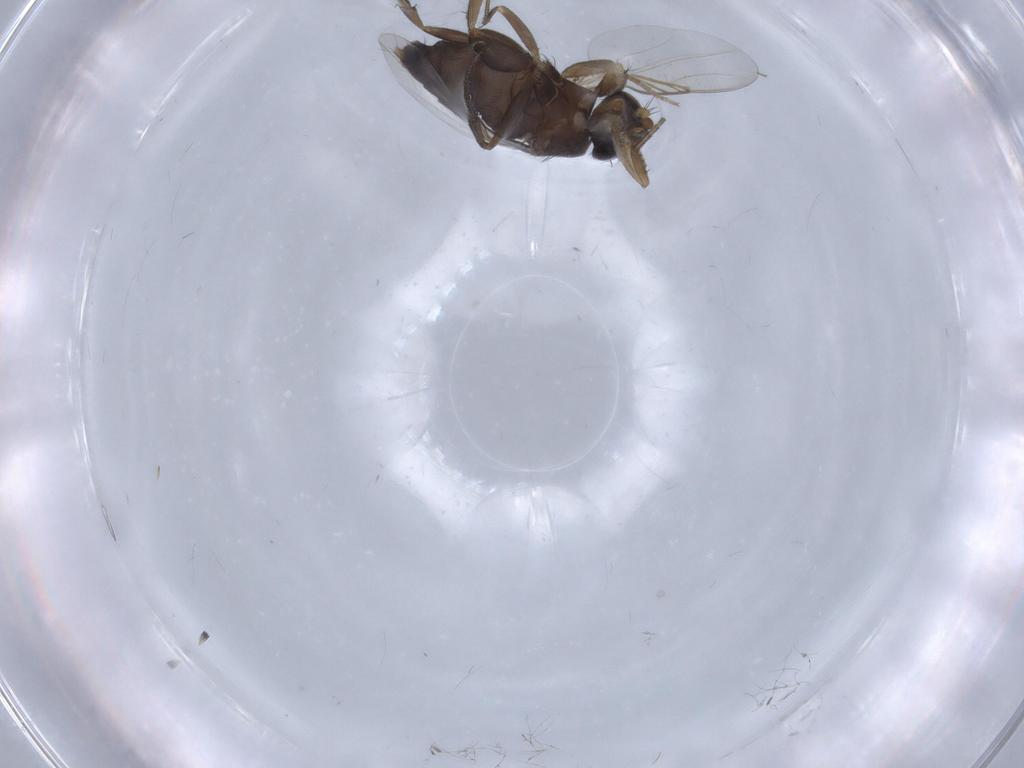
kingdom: Animalia
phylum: Arthropoda
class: Insecta
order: Diptera
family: Phoridae
